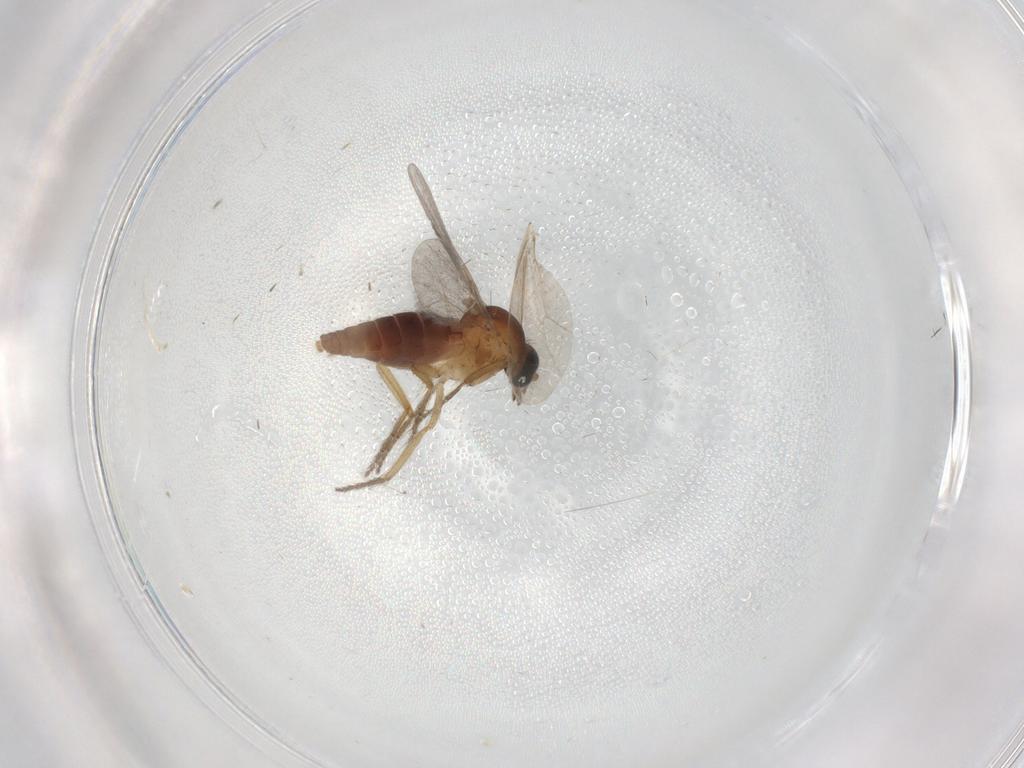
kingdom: Animalia
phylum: Arthropoda
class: Insecta
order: Diptera
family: Ceratopogonidae
